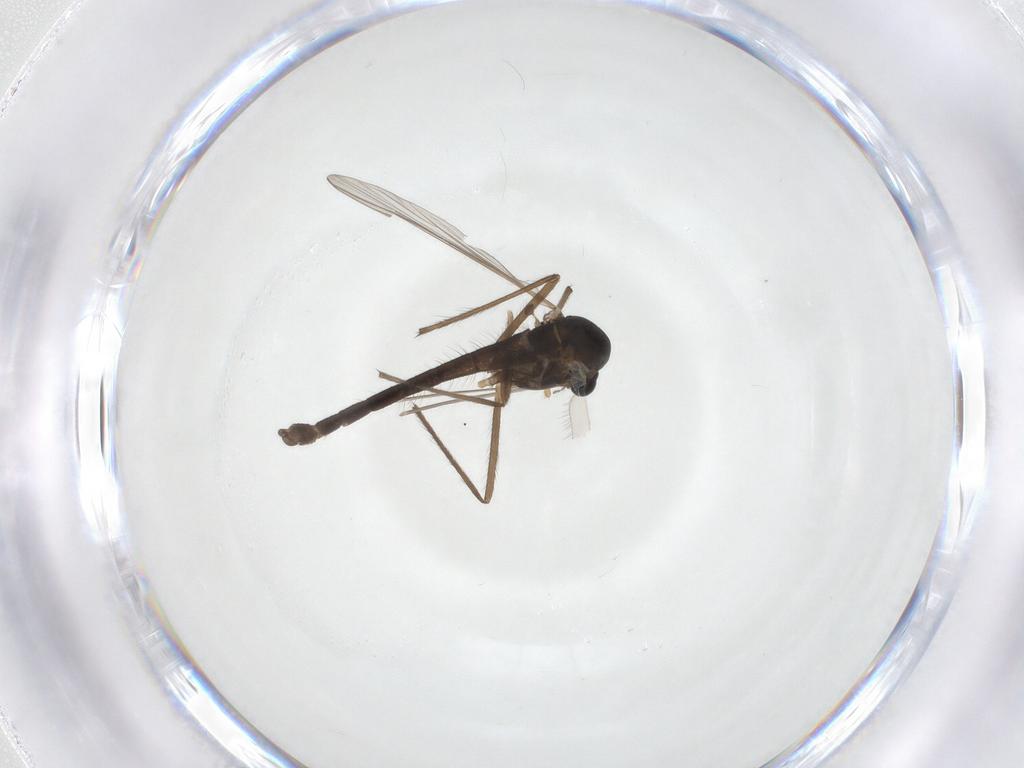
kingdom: Animalia
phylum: Arthropoda
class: Insecta
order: Diptera
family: Chironomidae
